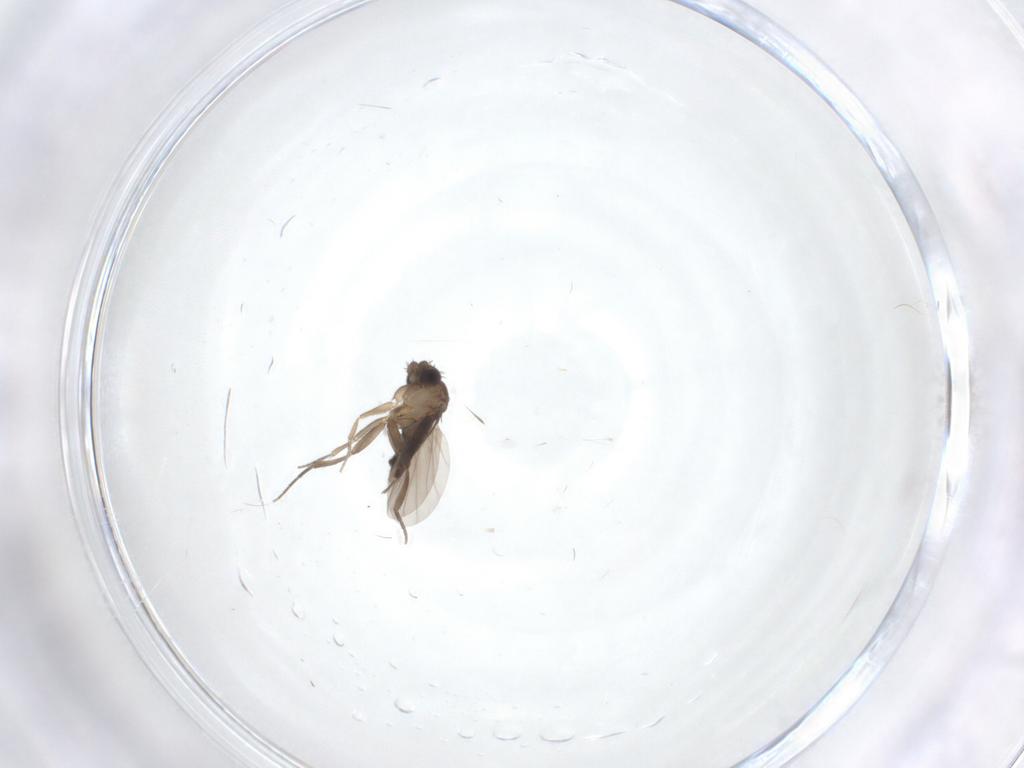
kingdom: Animalia
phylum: Arthropoda
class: Insecta
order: Diptera
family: Phoridae
